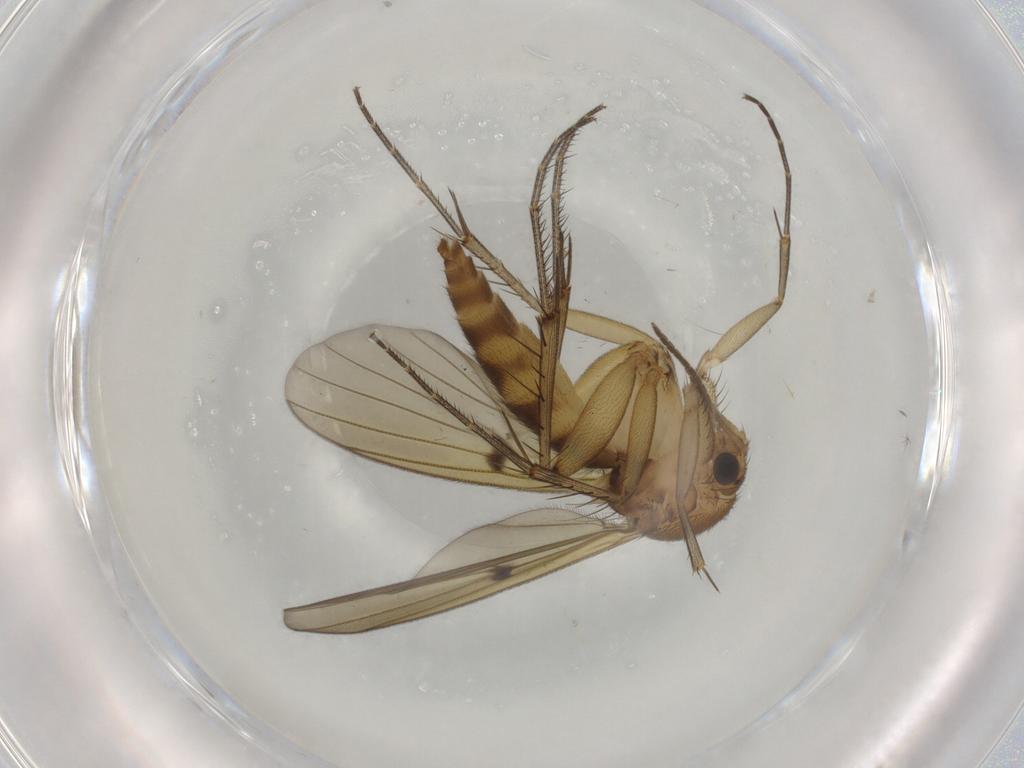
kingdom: Animalia
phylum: Arthropoda
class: Insecta
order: Diptera
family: Mycetophilidae
